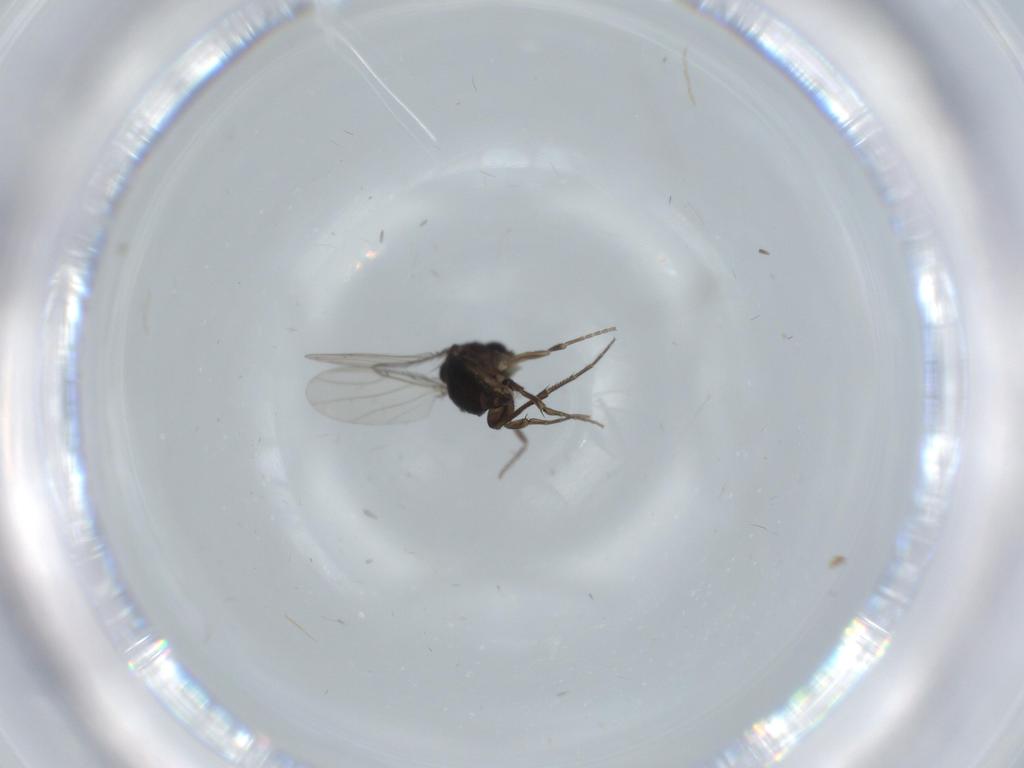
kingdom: Animalia
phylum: Arthropoda
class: Insecta
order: Diptera
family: Phoridae
